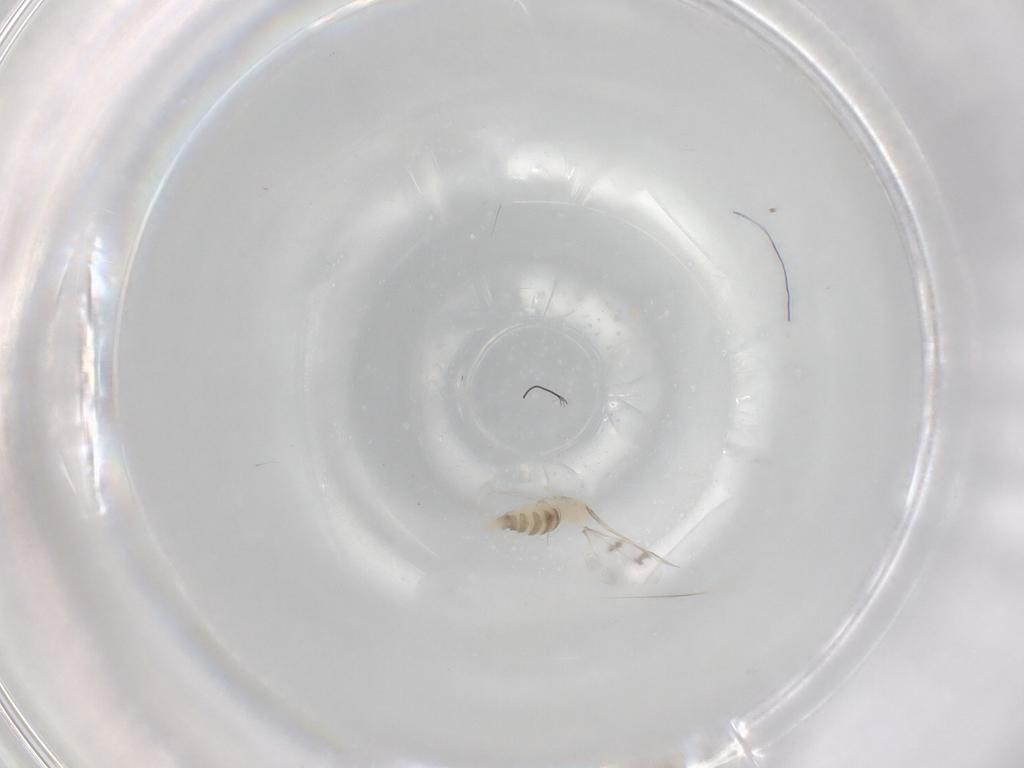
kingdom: Animalia
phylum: Arthropoda
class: Insecta
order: Diptera
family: Cecidomyiidae
